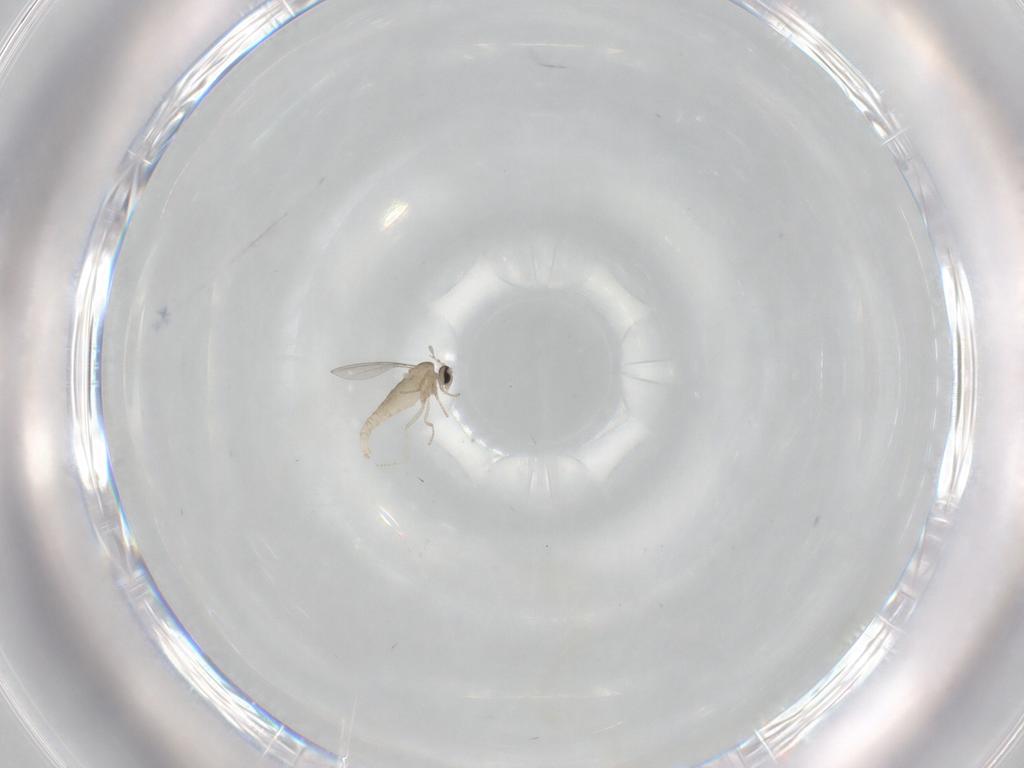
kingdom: Animalia
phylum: Arthropoda
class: Insecta
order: Diptera
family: Cecidomyiidae
